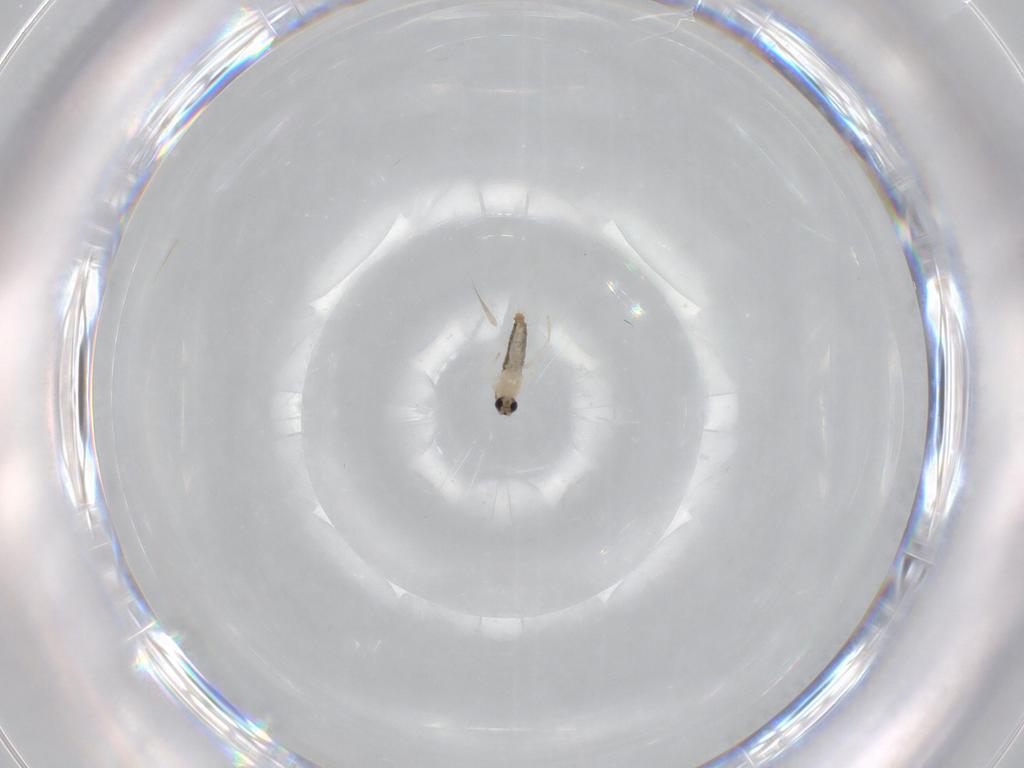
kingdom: Animalia
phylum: Arthropoda
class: Insecta
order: Diptera
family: Cecidomyiidae
